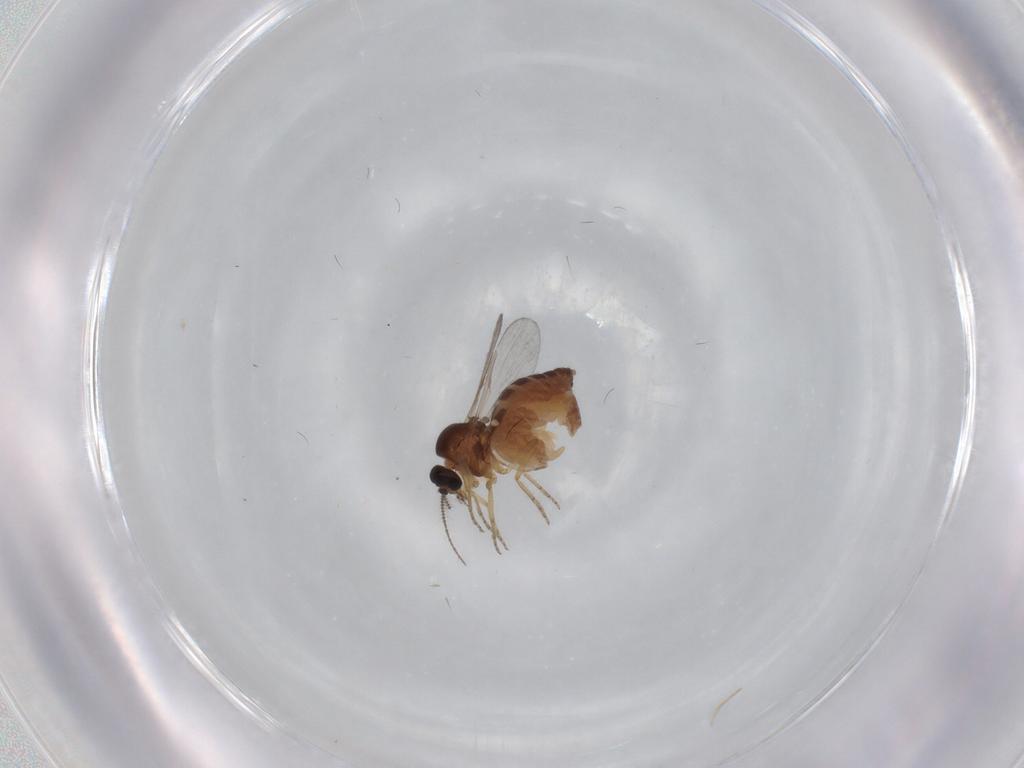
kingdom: Animalia
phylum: Arthropoda
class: Insecta
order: Diptera
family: Ceratopogonidae
